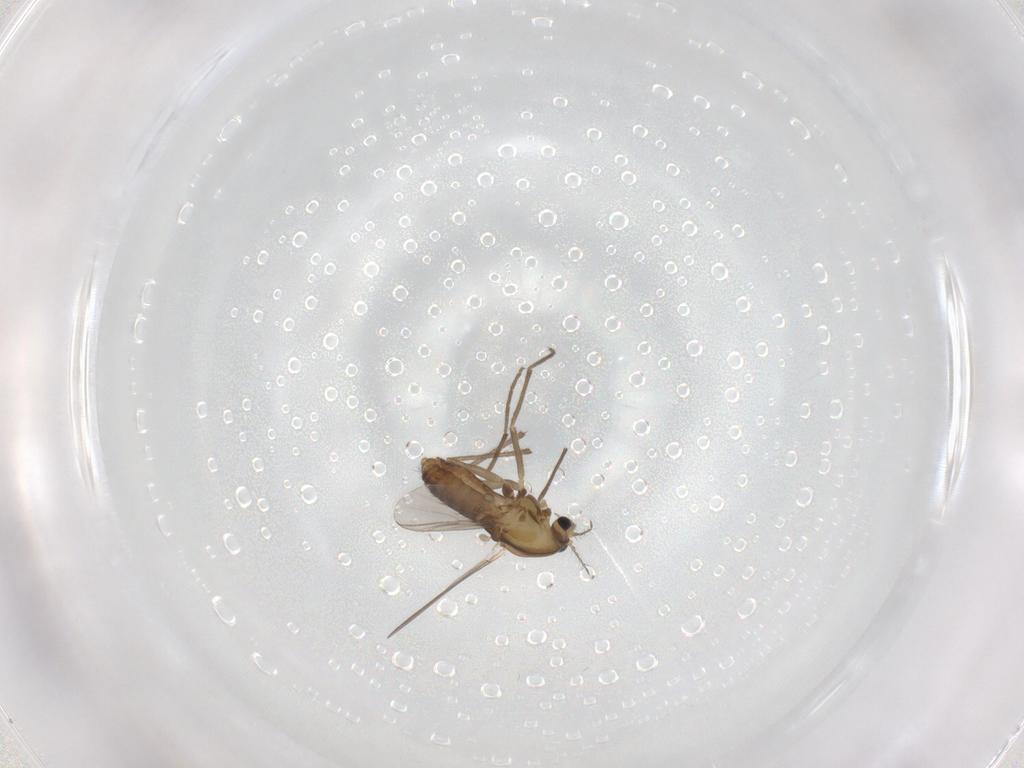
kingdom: Animalia
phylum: Arthropoda
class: Insecta
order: Diptera
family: Chironomidae
